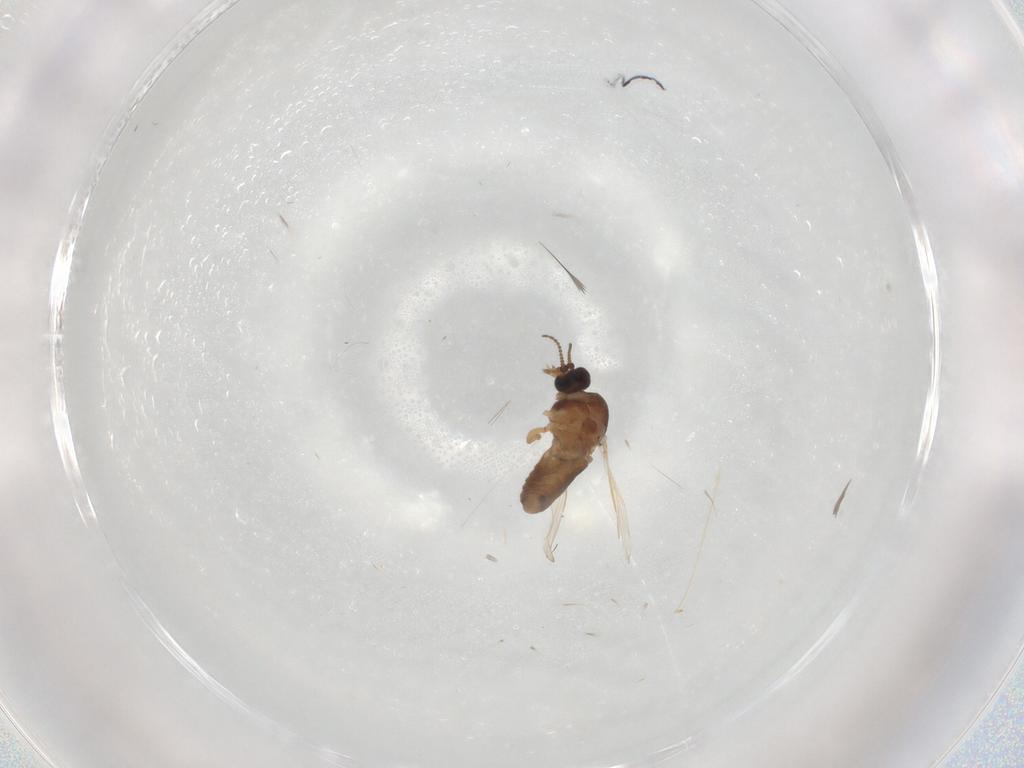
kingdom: Animalia
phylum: Arthropoda
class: Insecta
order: Diptera
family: Ceratopogonidae
